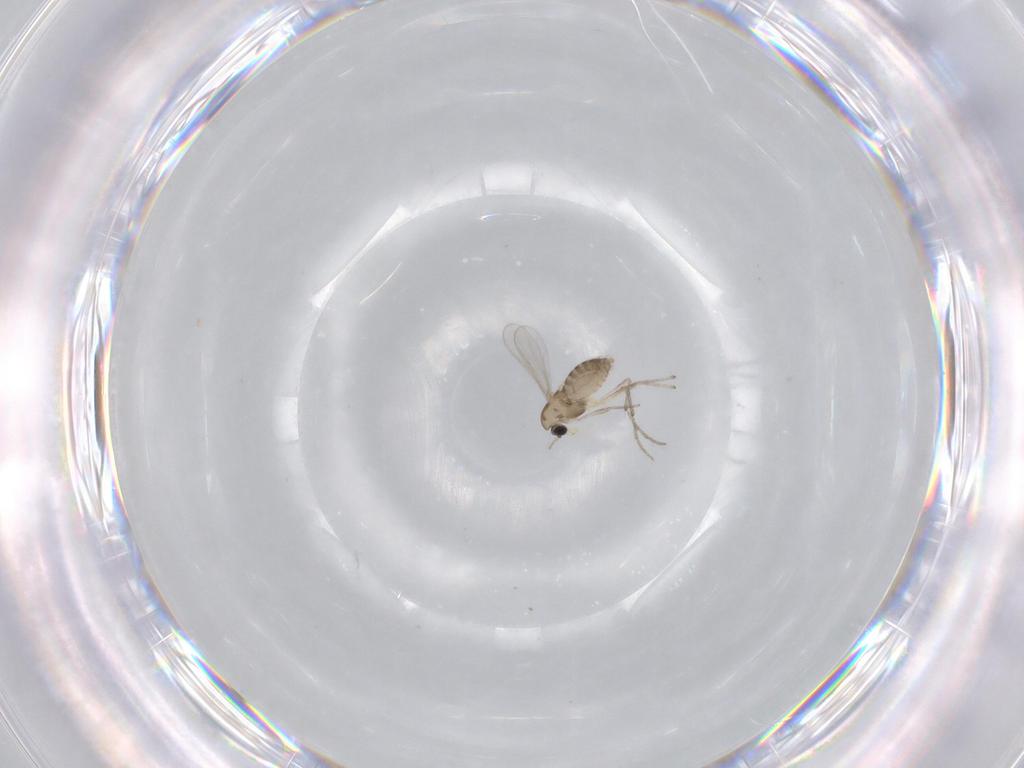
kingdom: Animalia
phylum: Arthropoda
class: Insecta
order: Diptera
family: Chironomidae
